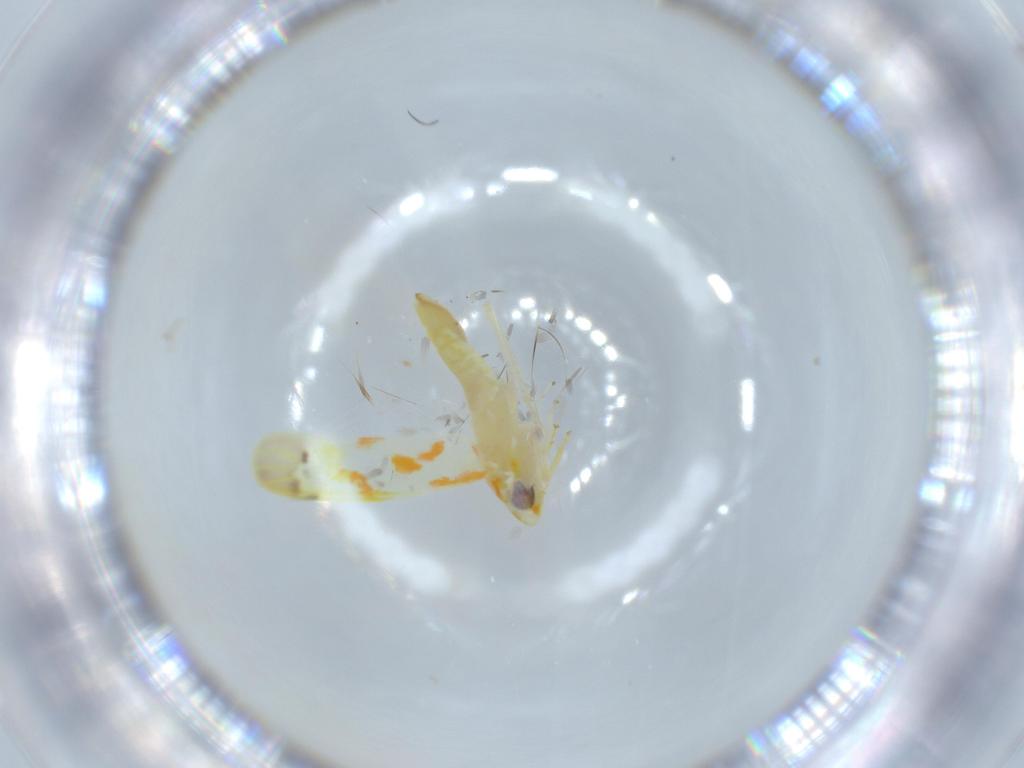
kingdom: Animalia
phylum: Arthropoda
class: Insecta
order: Hemiptera
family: Cicadellidae
